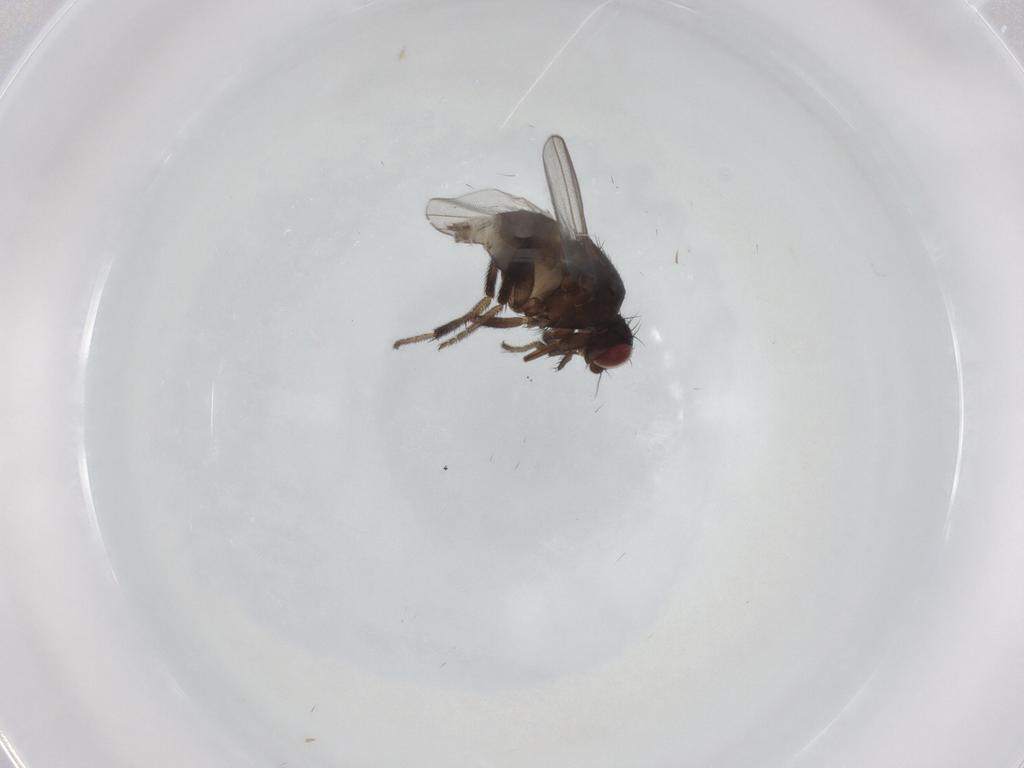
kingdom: Animalia
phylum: Arthropoda
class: Insecta
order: Diptera
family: Milichiidae
